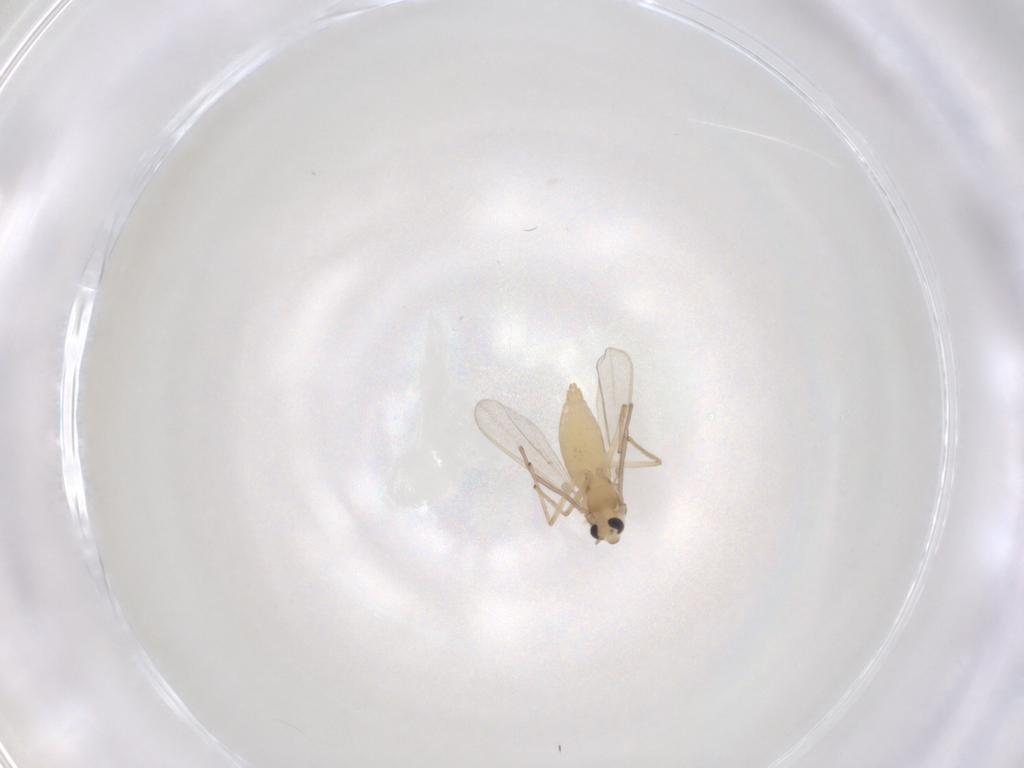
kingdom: Animalia
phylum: Arthropoda
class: Insecta
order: Diptera
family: Chironomidae
